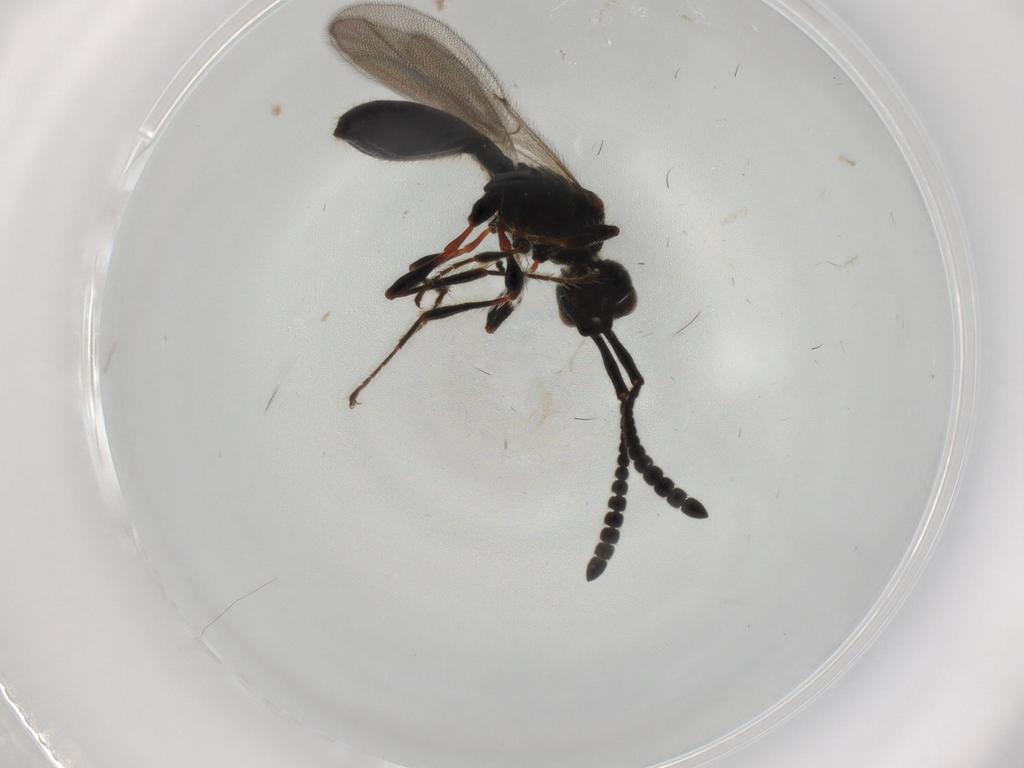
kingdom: Animalia
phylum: Arthropoda
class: Insecta
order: Hymenoptera
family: Diapriidae
